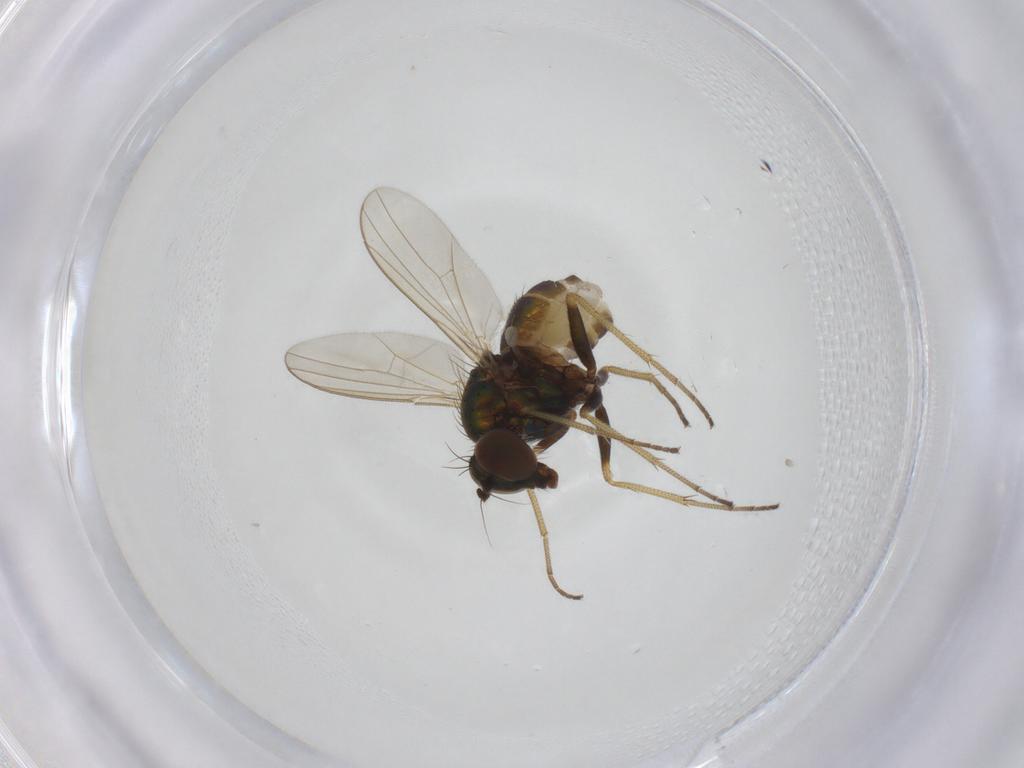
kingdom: Animalia
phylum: Arthropoda
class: Insecta
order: Diptera
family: Dolichopodidae
